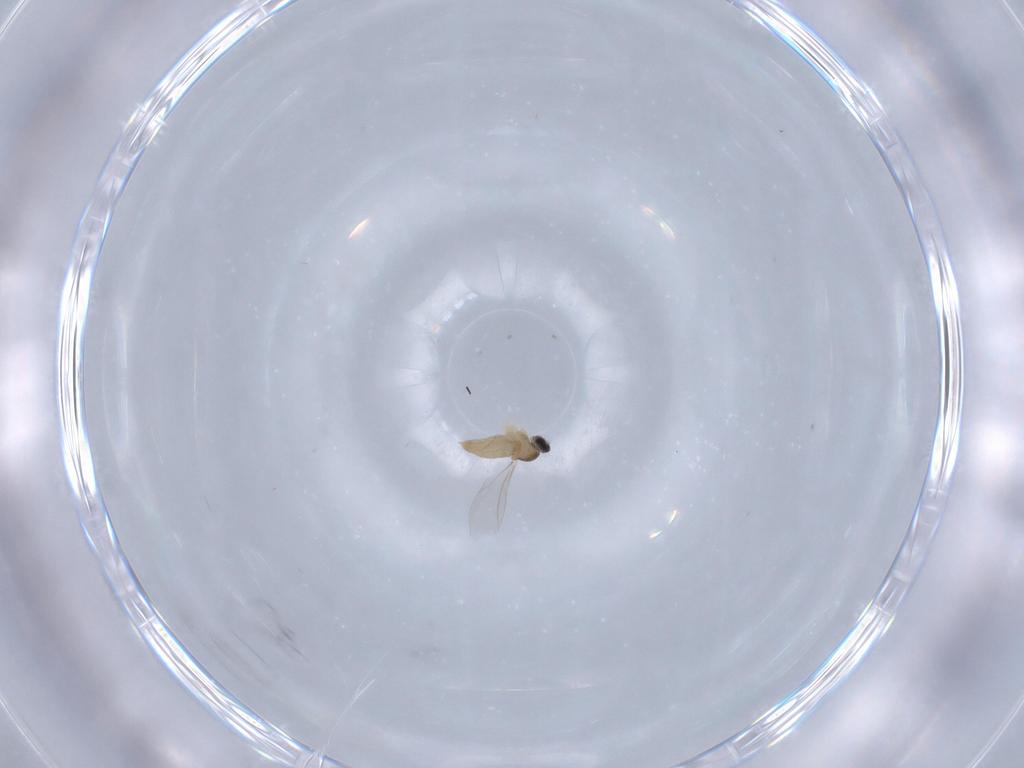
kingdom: Animalia
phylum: Arthropoda
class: Insecta
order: Diptera
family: Cecidomyiidae
